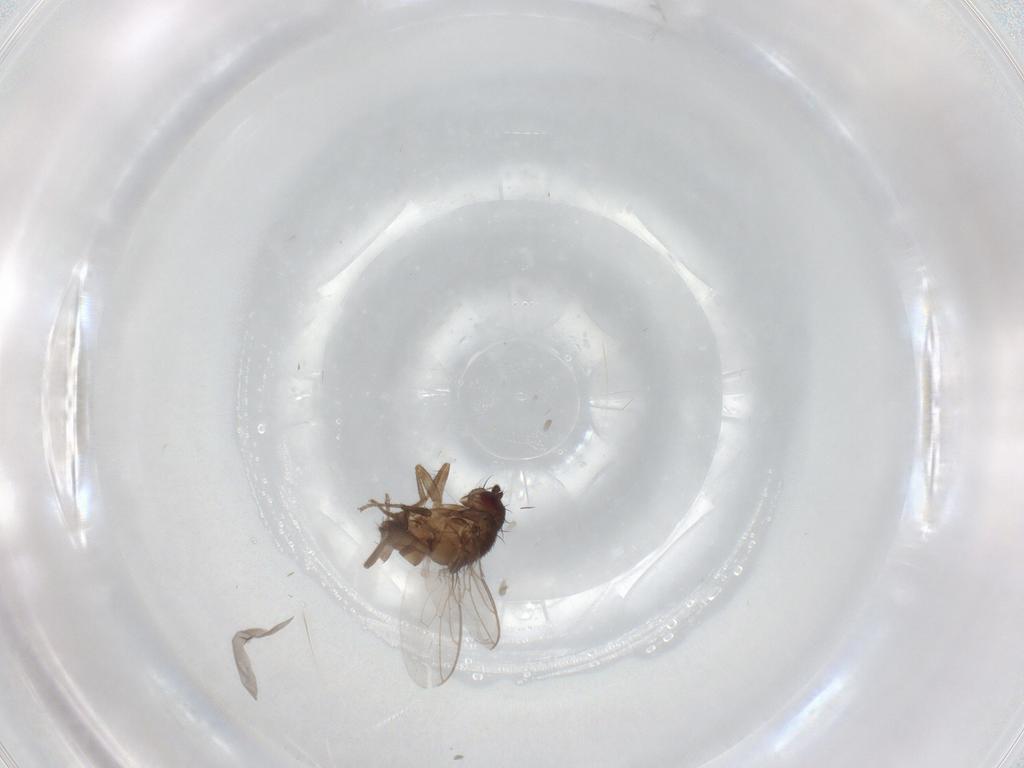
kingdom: Animalia
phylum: Arthropoda
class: Insecta
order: Diptera
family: Sphaeroceridae
